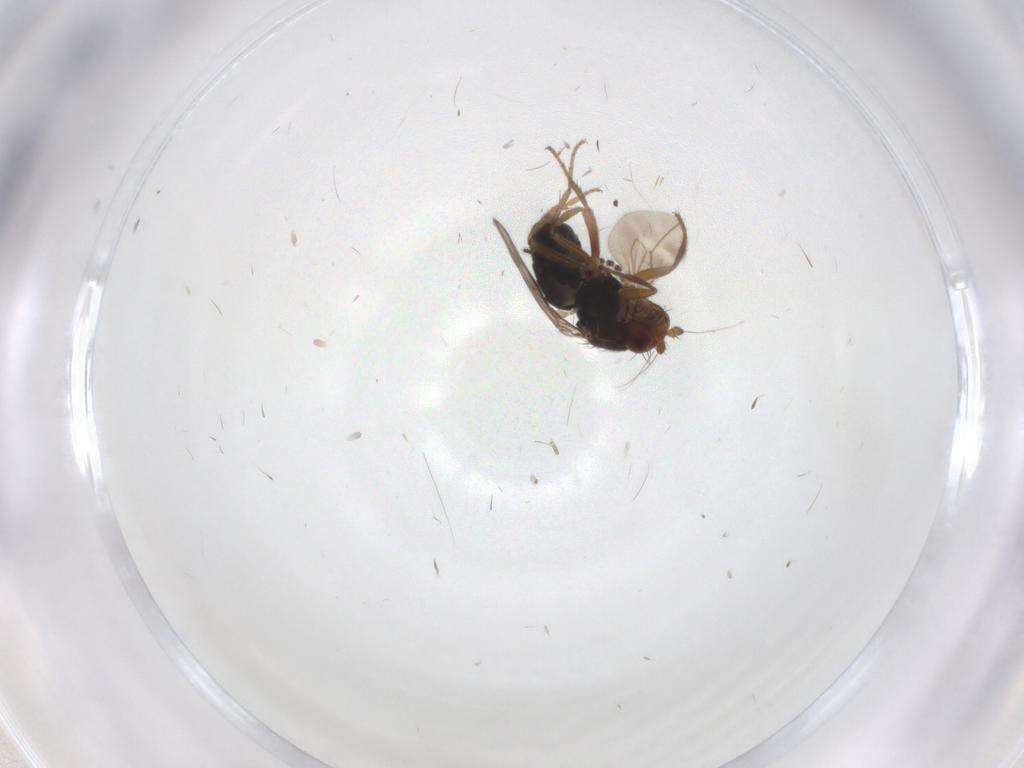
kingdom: Animalia
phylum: Arthropoda
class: Insecta
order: Diptera
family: Sphaeroceridae
